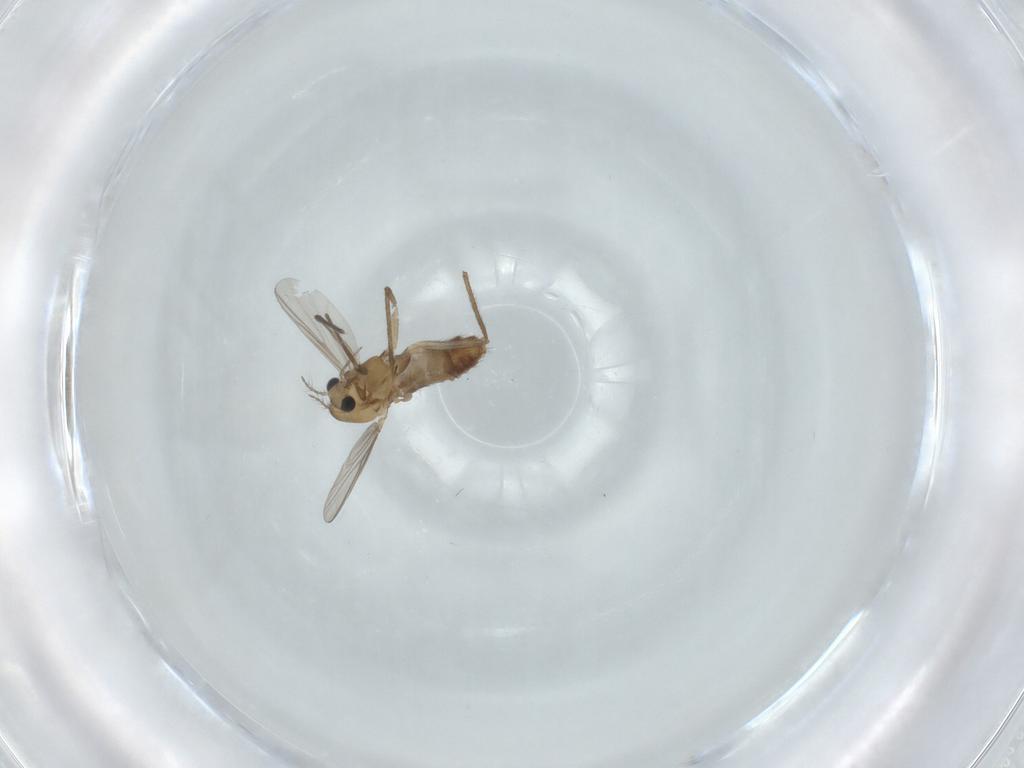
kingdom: Animalia
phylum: Arthropoda
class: Insecta
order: Diptera
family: Chironomidae
